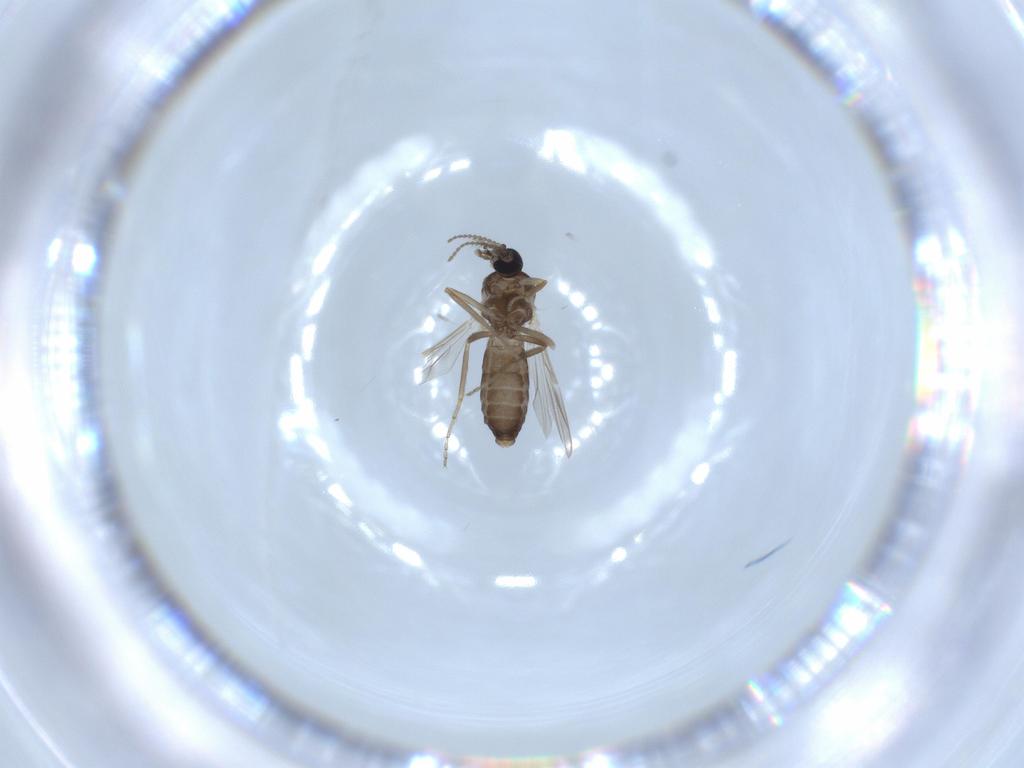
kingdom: Animalia
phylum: Arthropoda
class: Insecta
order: Diptera
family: Ceratopogonidae
